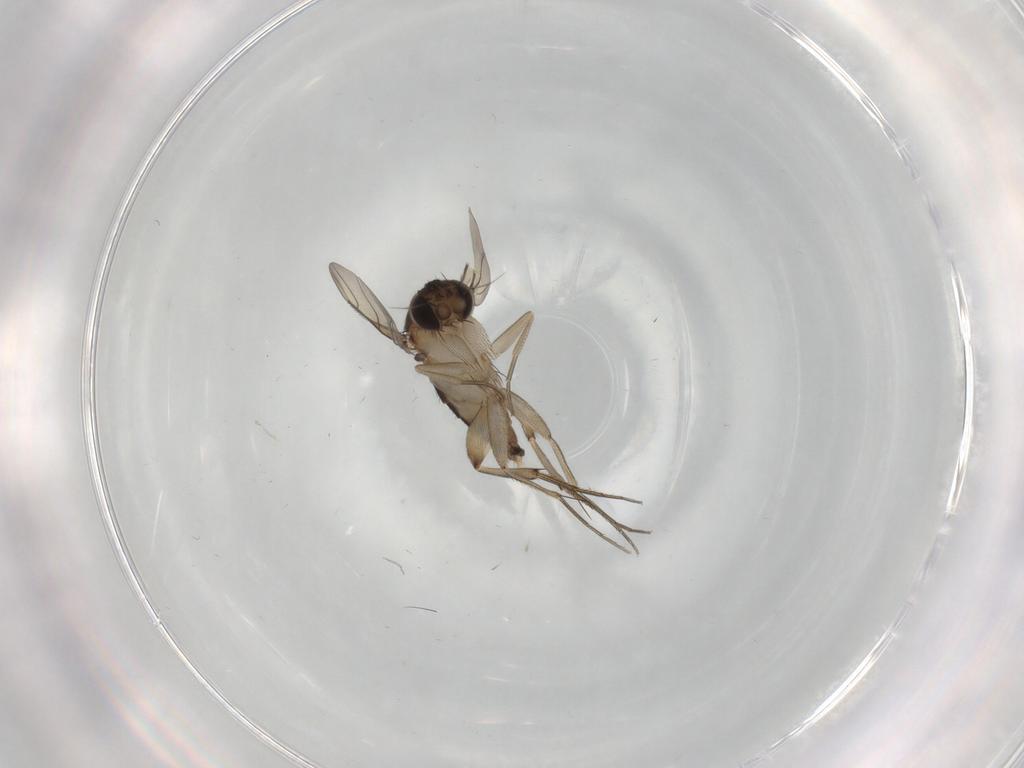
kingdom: Animalia
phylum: Arthropoda
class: Insecta
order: Diptera
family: Phoridae
